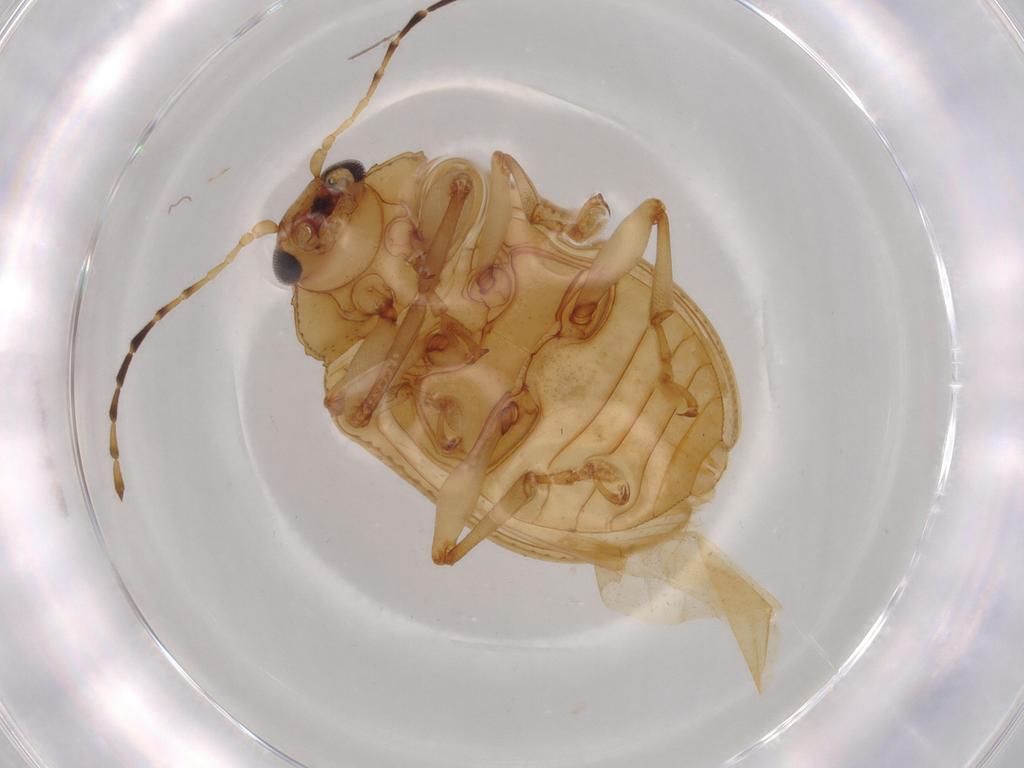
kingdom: Animalia
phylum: Arthropoda
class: Insecta
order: Coleoptera
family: Chrysomelidae
